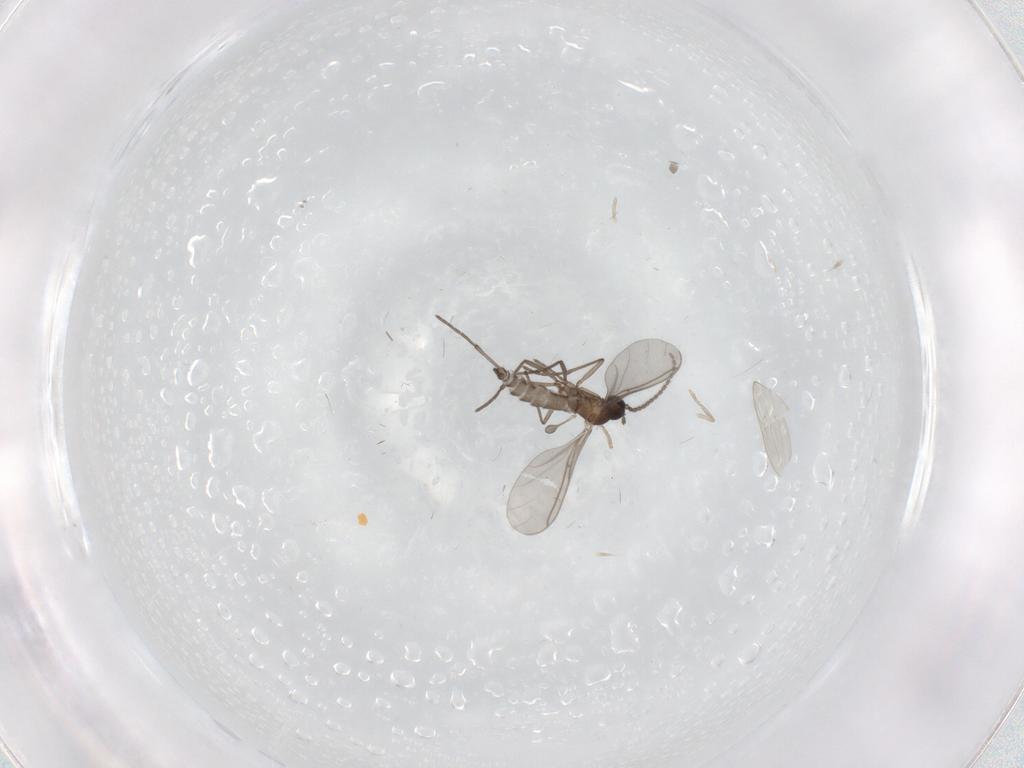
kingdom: Animalia
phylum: Arthropoda
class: Insecta
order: Diptera
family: Sciaridae
